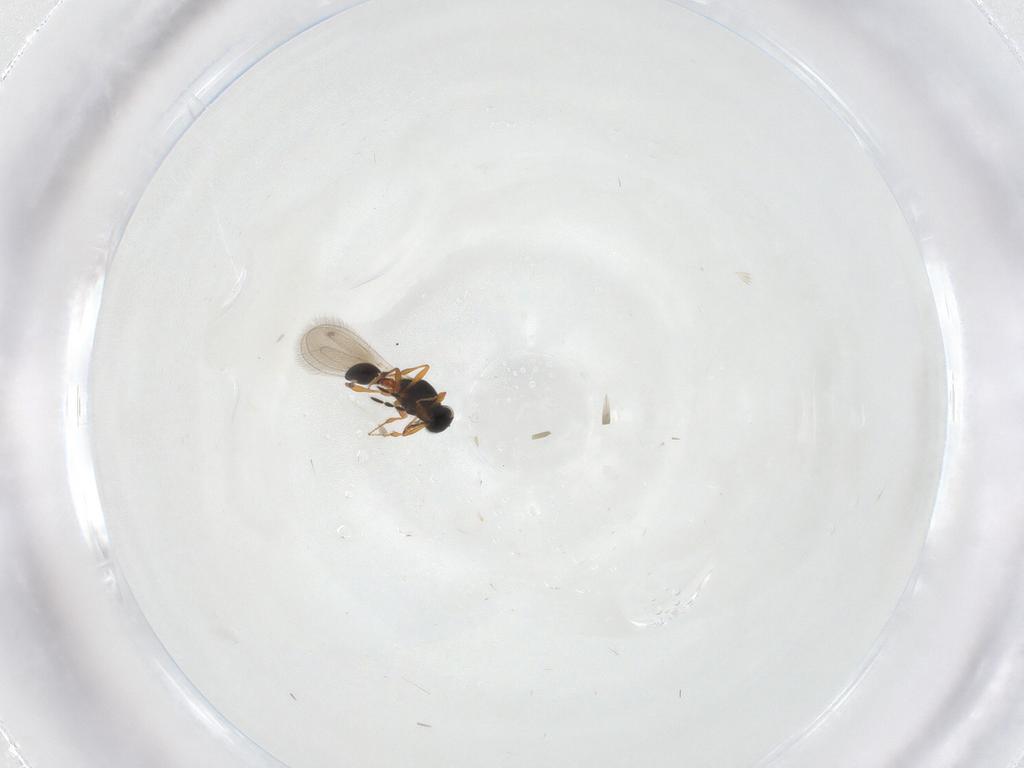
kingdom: Animalia
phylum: Arthropoda
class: Insecta
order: Hymenoptera
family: Platygastridae
